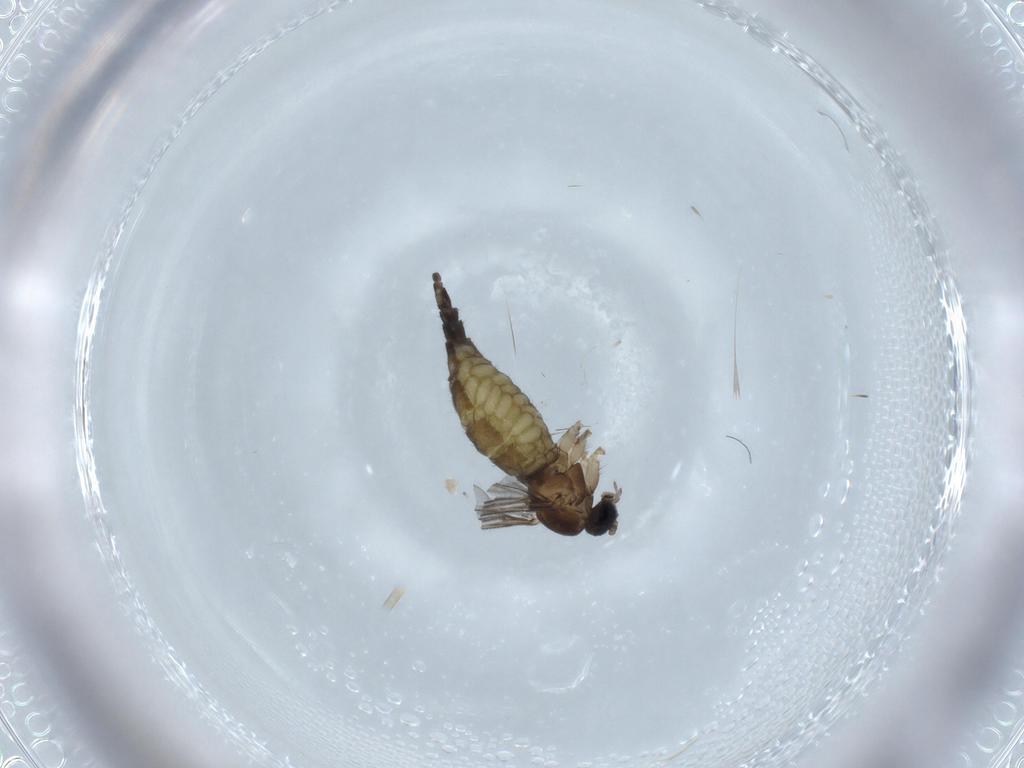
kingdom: Animalia
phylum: Arthropoda
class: Insecta
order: Diptera
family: Sciaridae
